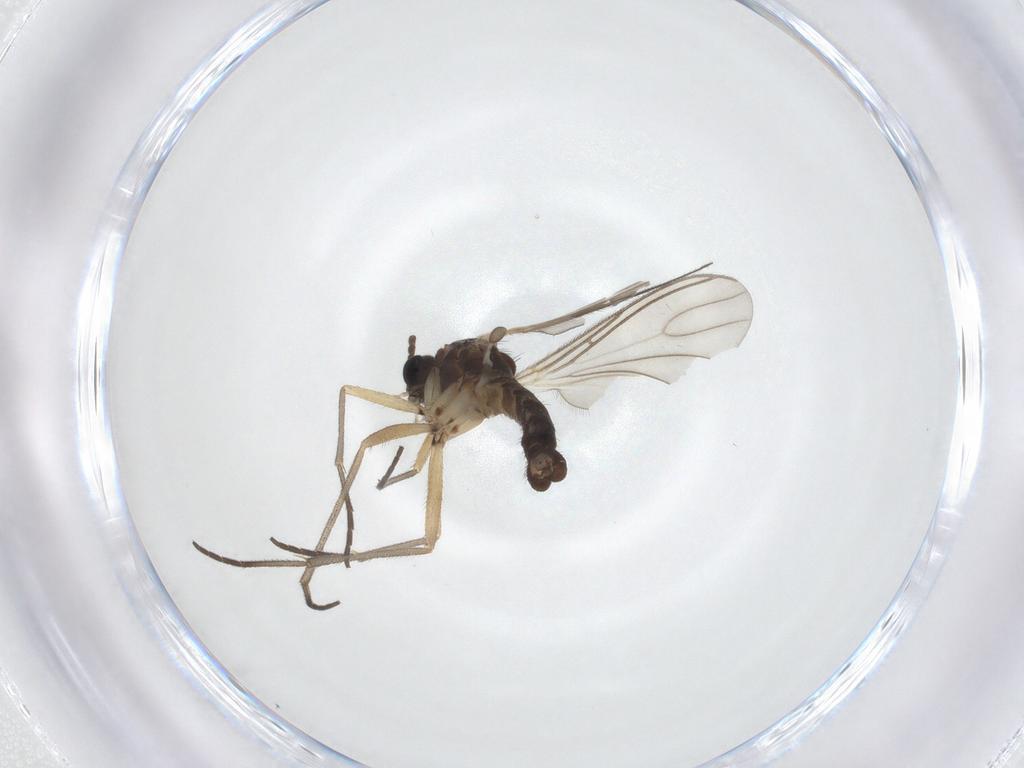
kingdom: Animalia
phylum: Arthropoda
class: Insecta
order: Diptera
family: Sciaridae
